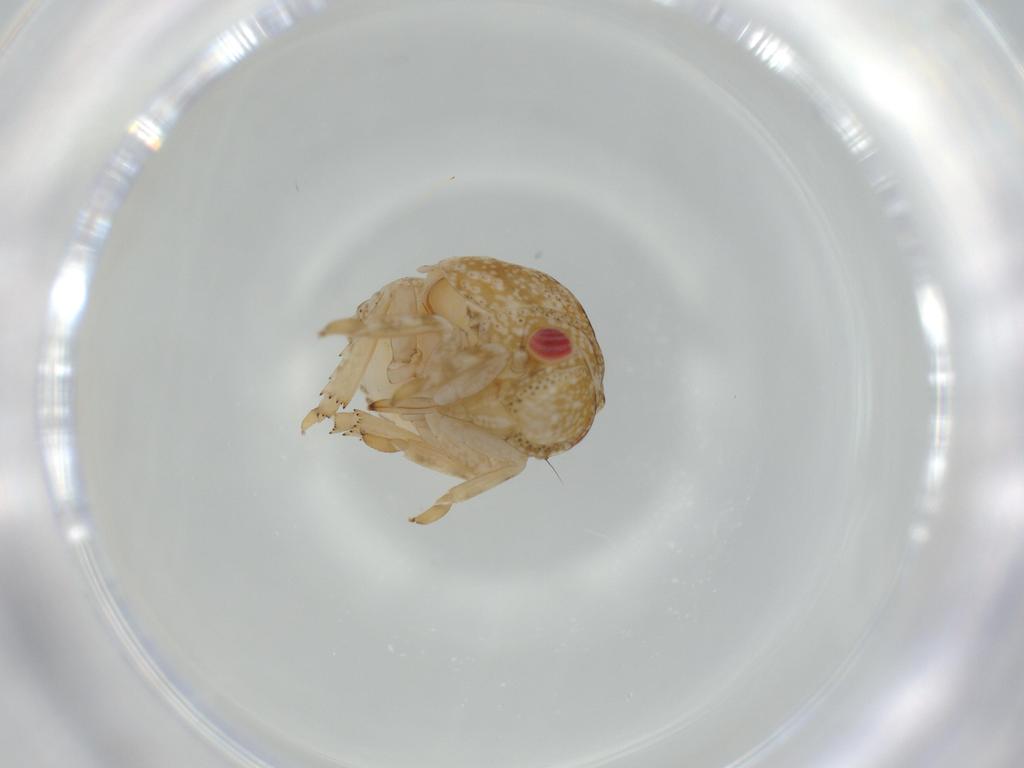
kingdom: Animalia
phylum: Arthropoda
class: Insecta
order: Hemiptera
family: Acanaloniidae
